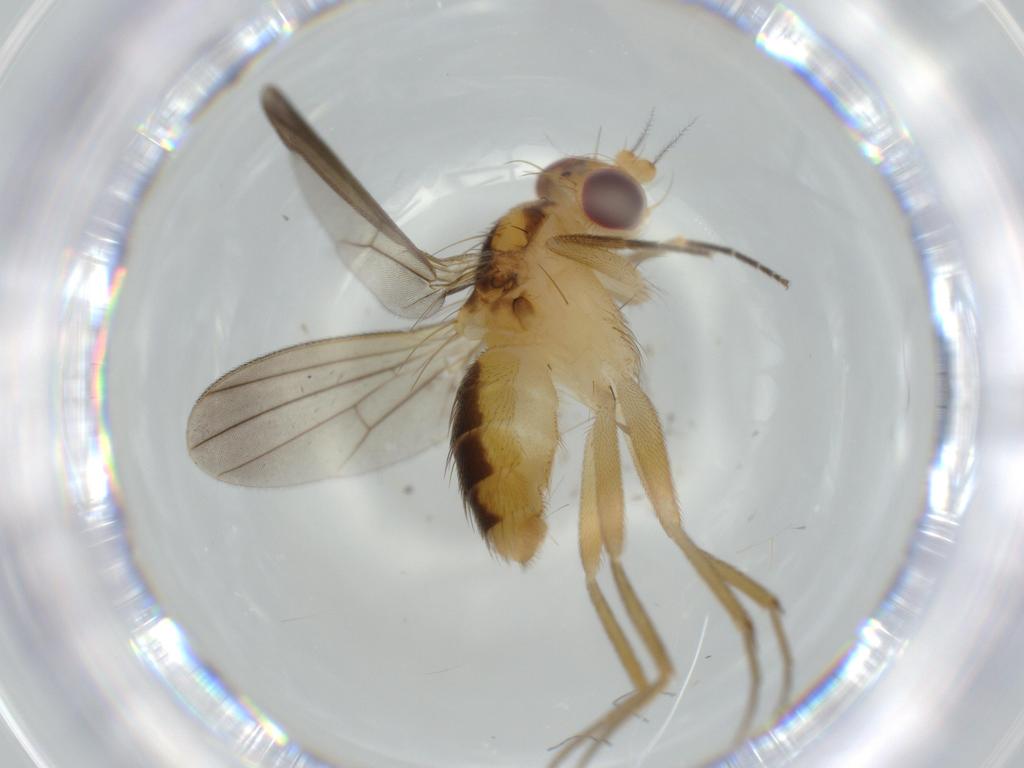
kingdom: Animalia
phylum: Arthropoda
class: Insecta
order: Diptera
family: Clusiidae
